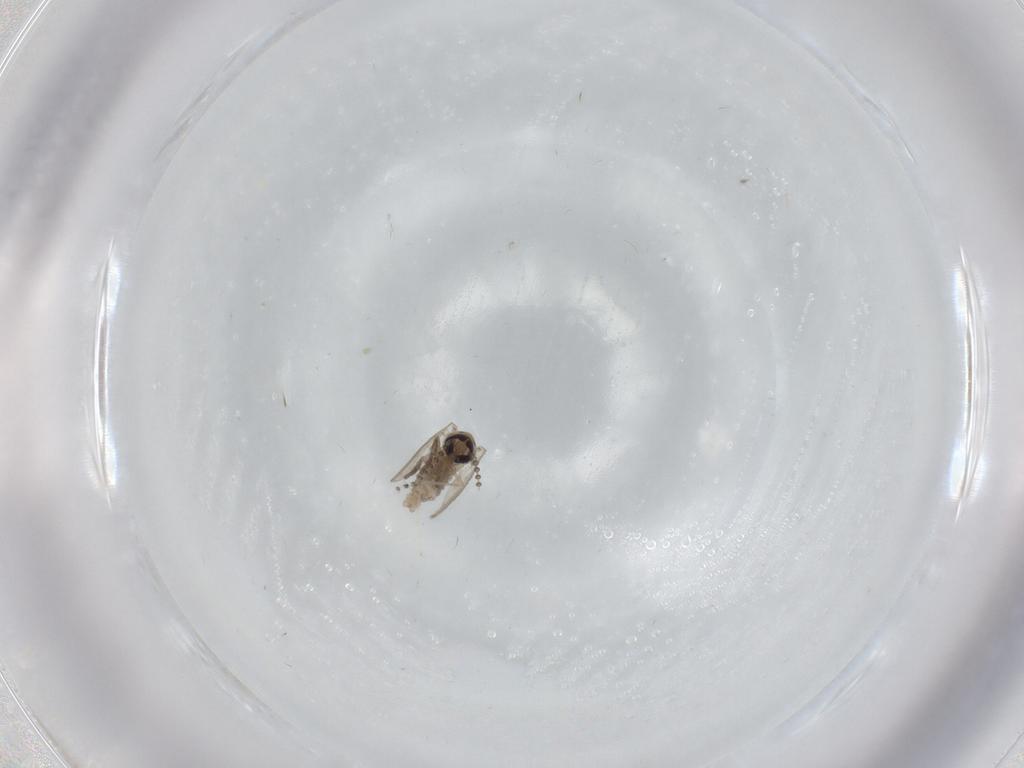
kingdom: Animalia
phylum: Arthropoda
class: Insecta
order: Diptera
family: Psychodidae
